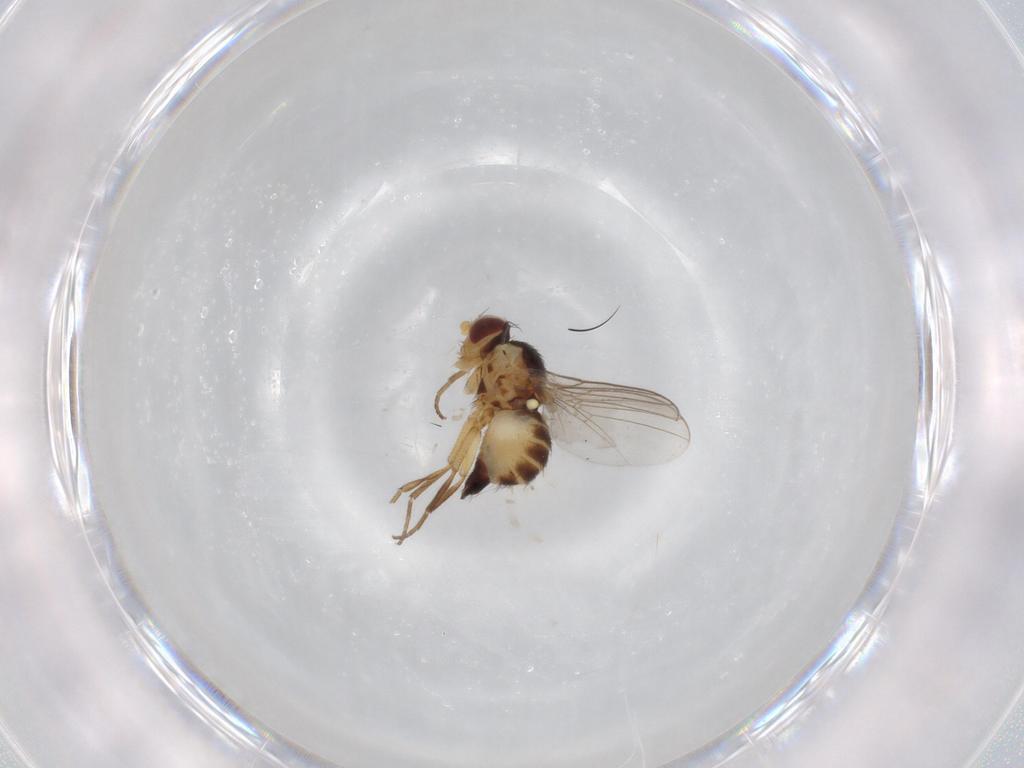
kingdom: Animalia
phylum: Arthropoda
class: Insecta
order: Diptera
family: Agromyzidae
